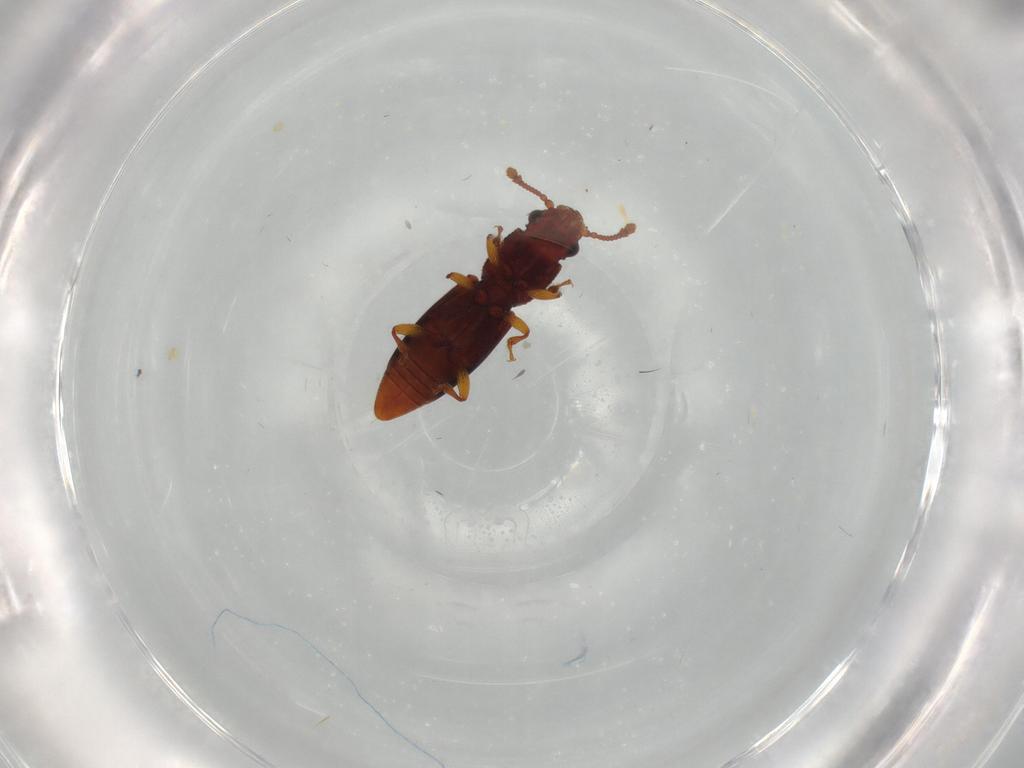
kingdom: Animalia
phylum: Arthropoda
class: Insecta
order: Coleoptera
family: Monotomidae
